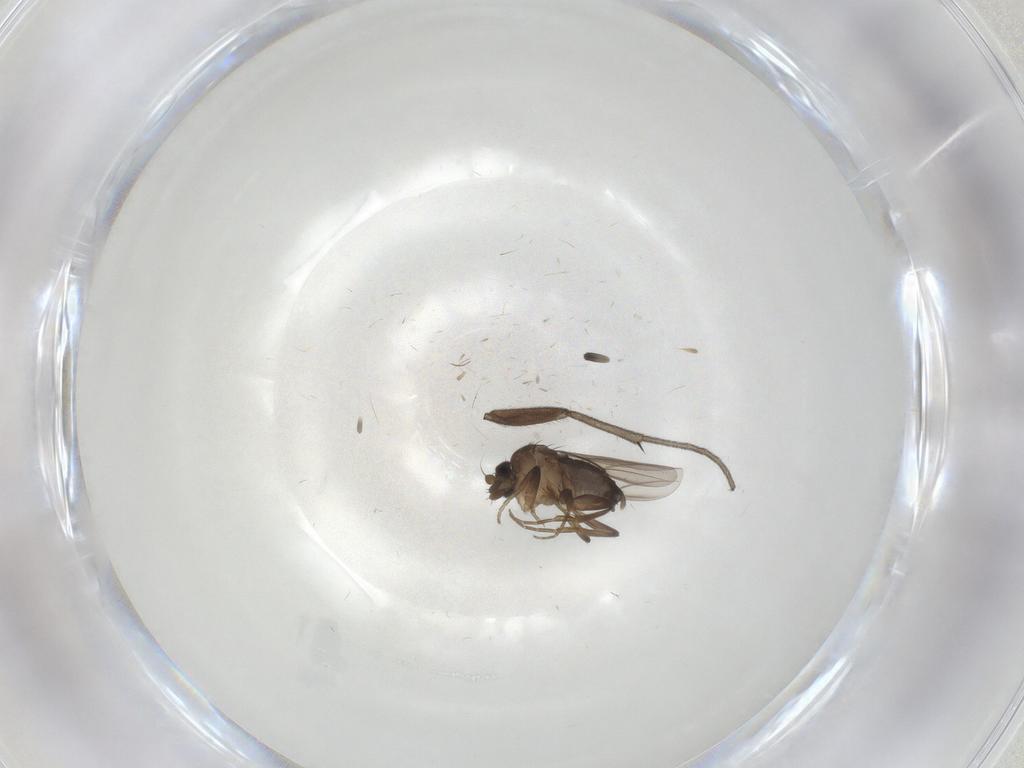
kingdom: Animalia
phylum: Arthropoda
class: Insecta
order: Diptera
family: Mycetophilidae
